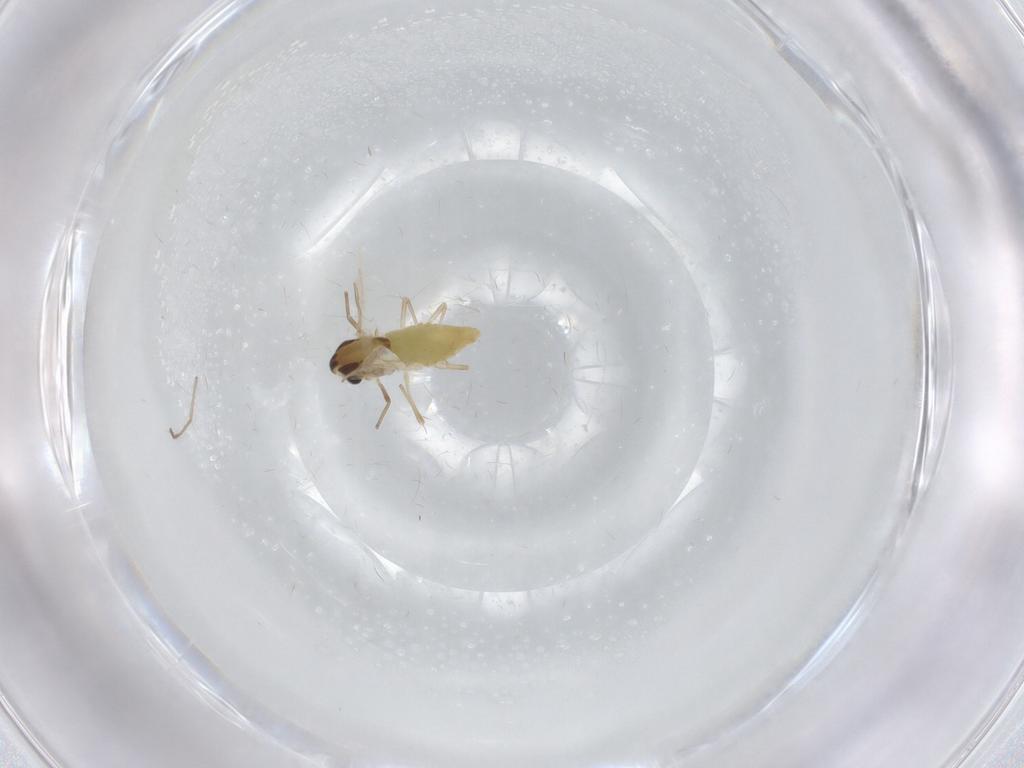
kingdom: Animalia
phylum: Arthropoda
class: Insecta
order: Diptera
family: Chironomidae
